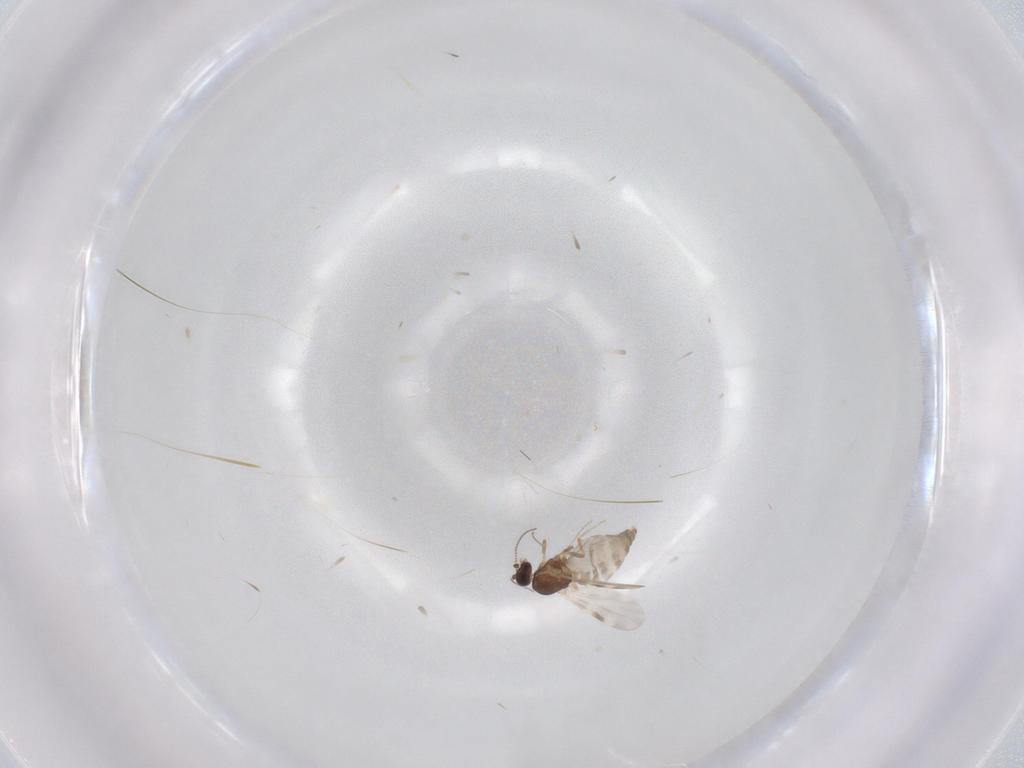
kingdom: Animalia
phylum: Arthropoda
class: Insecta
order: Diptera
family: Ceratopogonidae
